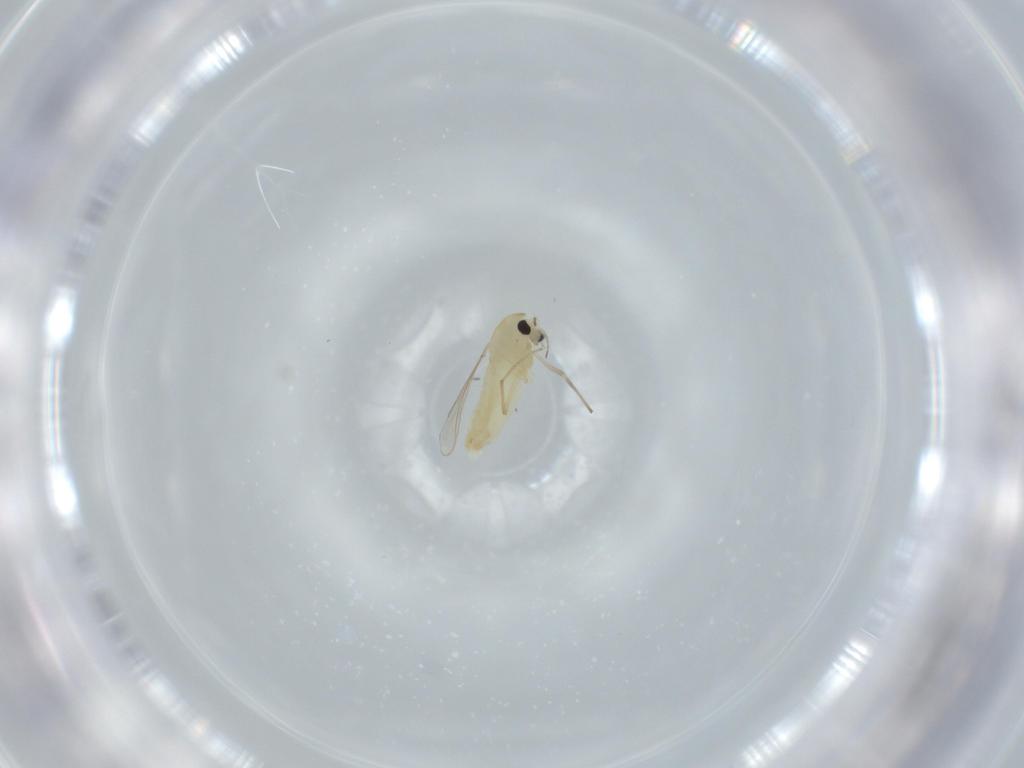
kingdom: Animalia
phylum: Arthropoda
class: Insecta
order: Diptera
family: Chironomidae
